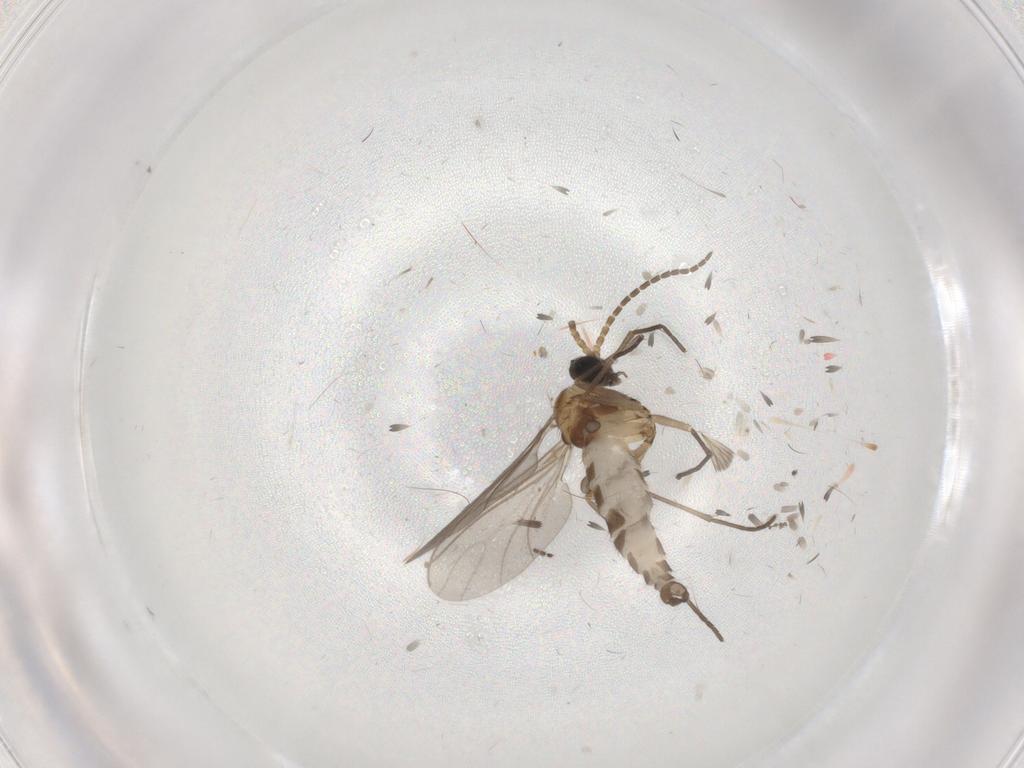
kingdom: Animalia
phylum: Arthropoda
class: Insecta
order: Diptera
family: Sciaridae
